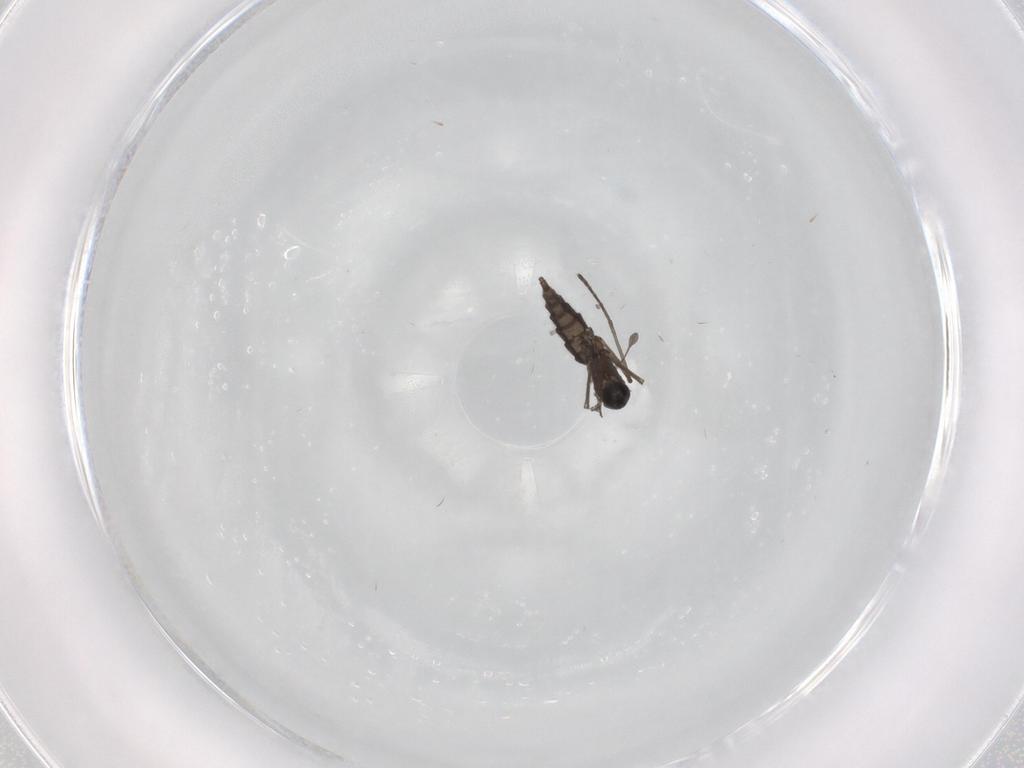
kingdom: Animalia
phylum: Arthropoda
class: Insecta
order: Diptera
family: Sciaridae
